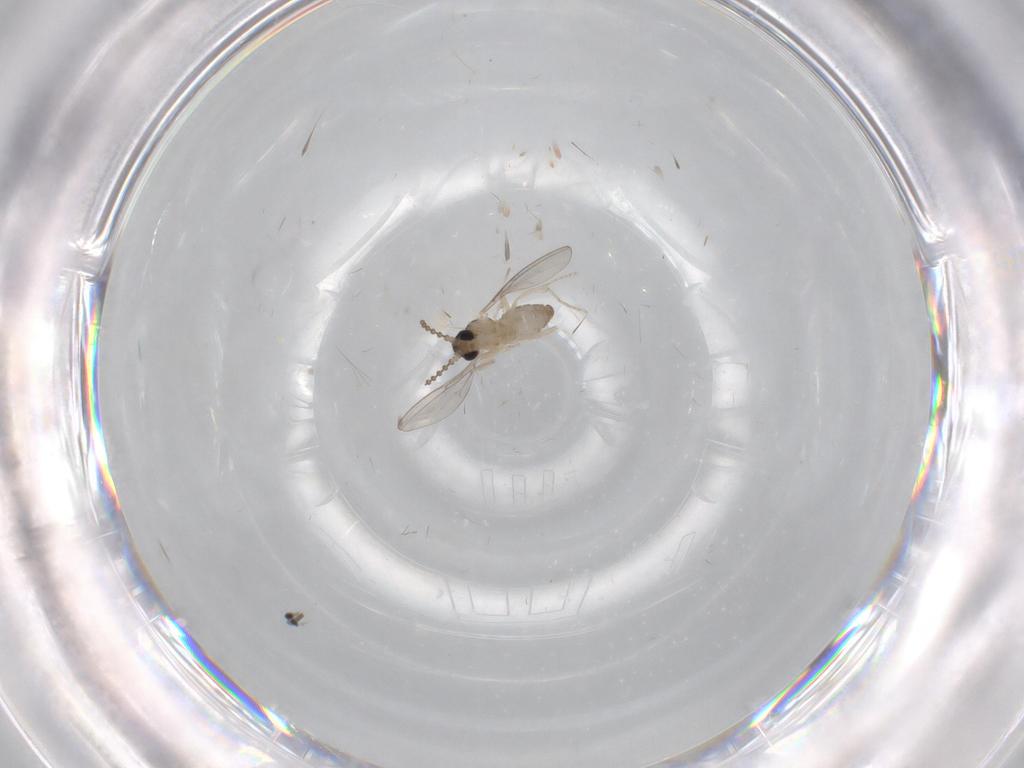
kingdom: Animalia
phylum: Arthropoda
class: Insecta
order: Diptera
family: Cecidomyiidae
